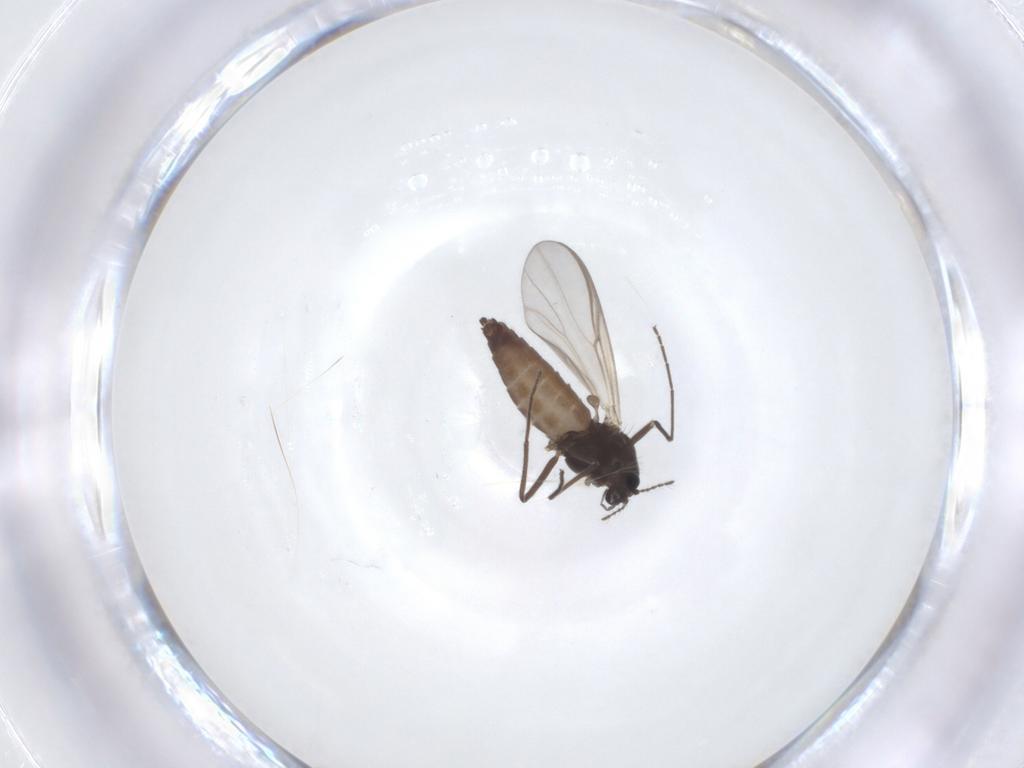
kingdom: Animalia
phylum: Arthropoda
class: Insecta
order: Diptera
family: Chironomidae
